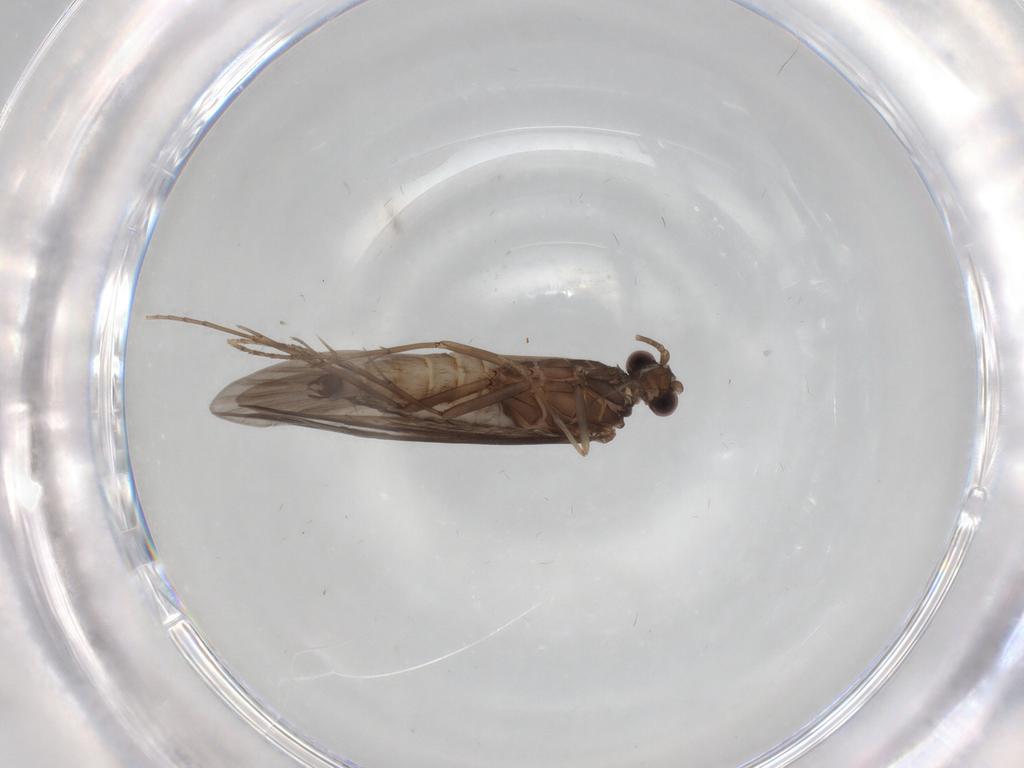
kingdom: Animalia
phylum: Arthropoda
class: Insecta
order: Trichoptera
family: Xiphocentronidae
